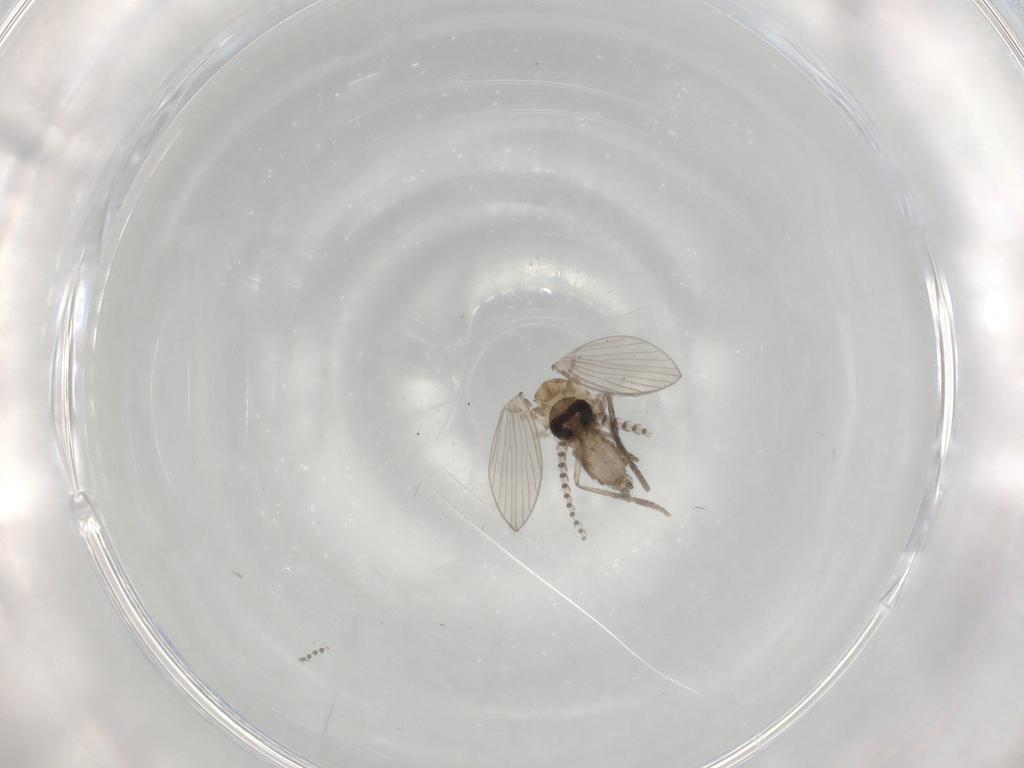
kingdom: Animalia
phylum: Arthropoda
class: Insecta
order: Diptera
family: Psychodidae
